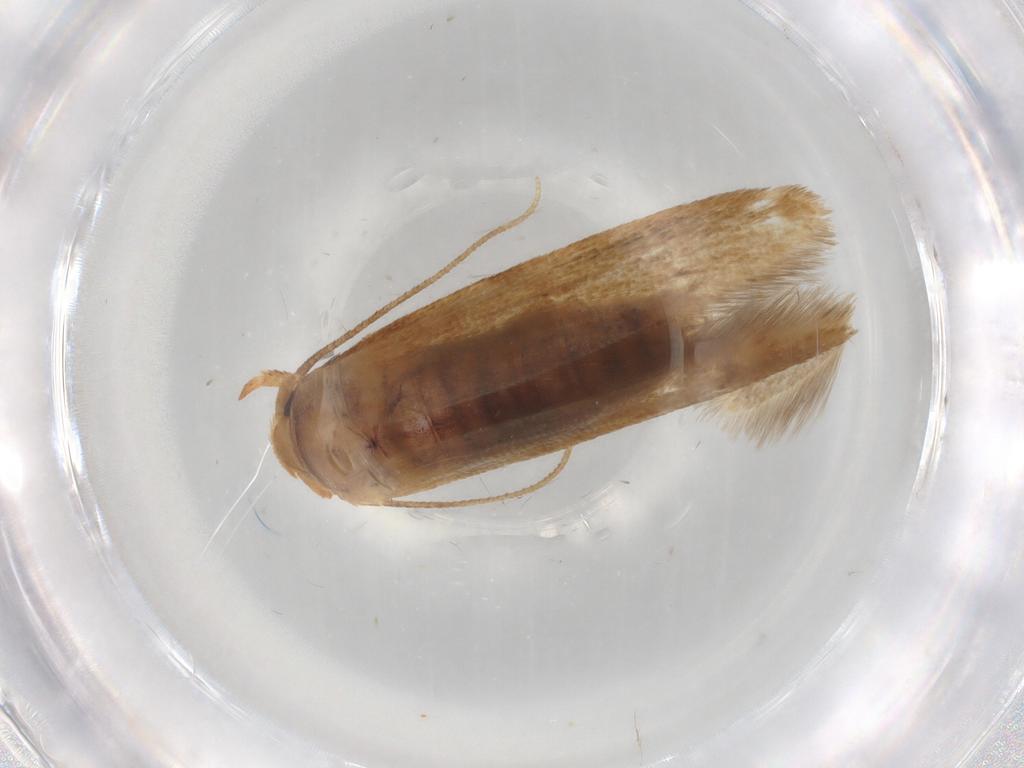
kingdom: Animalia
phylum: Arthropoda
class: Insecta
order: Lepidoptera
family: Blastobasidae
